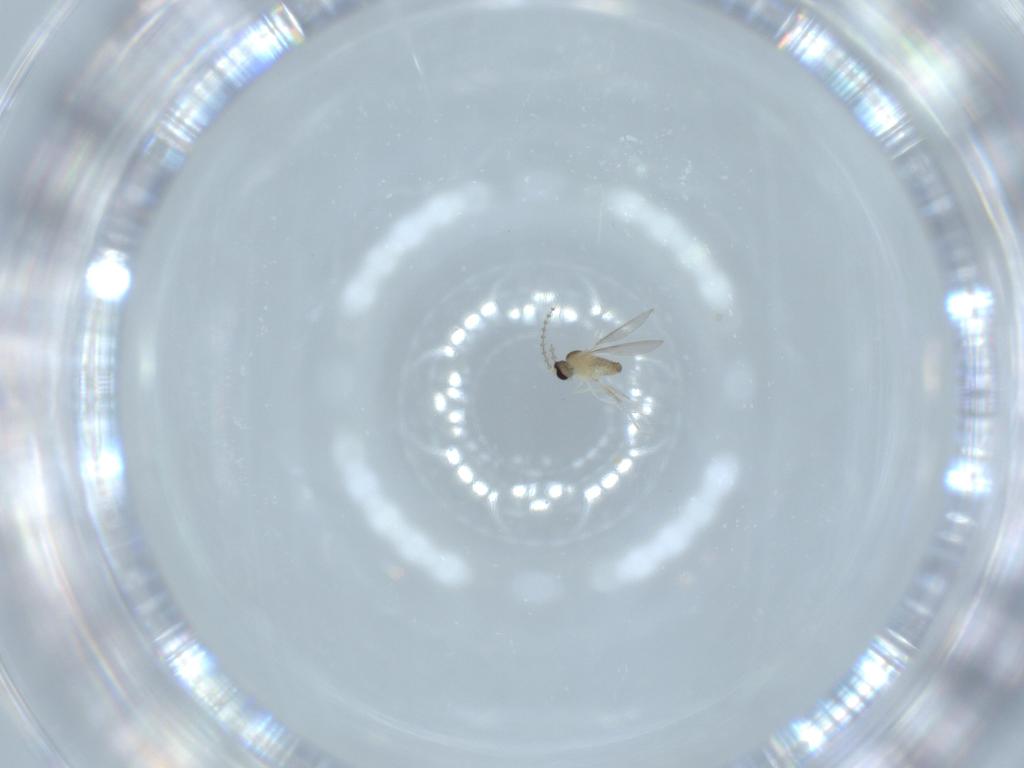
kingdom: Animalia
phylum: Arthropoda
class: Insecta
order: Diptera
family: Cecidomyiidae
